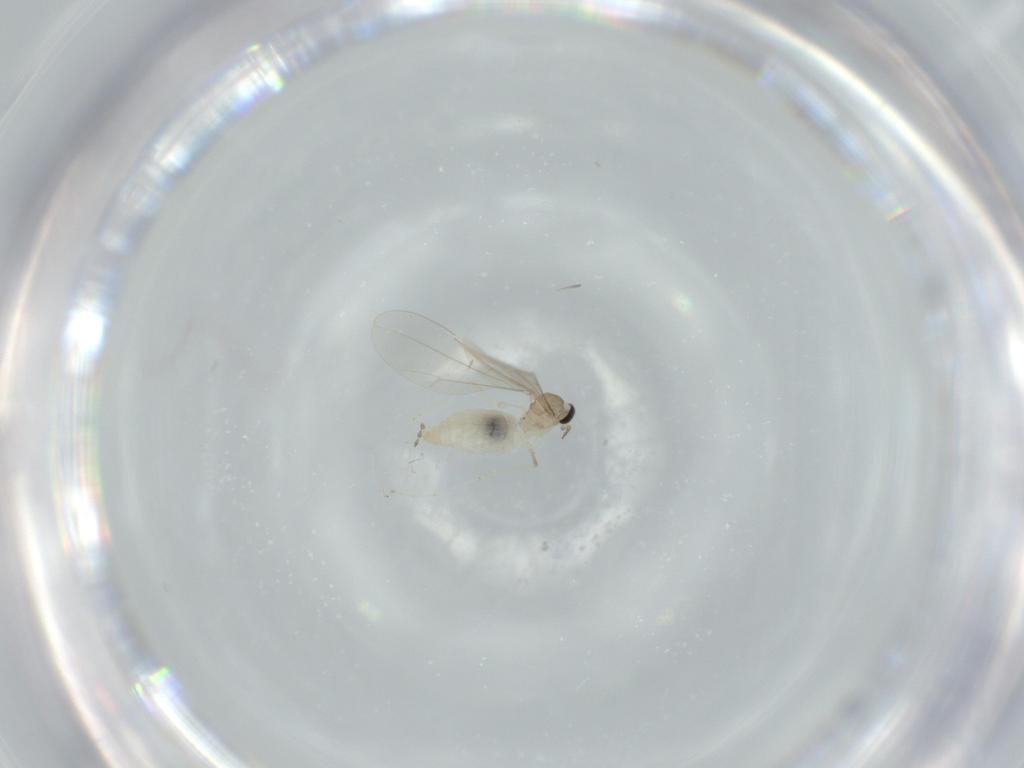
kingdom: Animalia
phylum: Arthropoda
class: Insecta
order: Diptera
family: Cecidomyiidae
